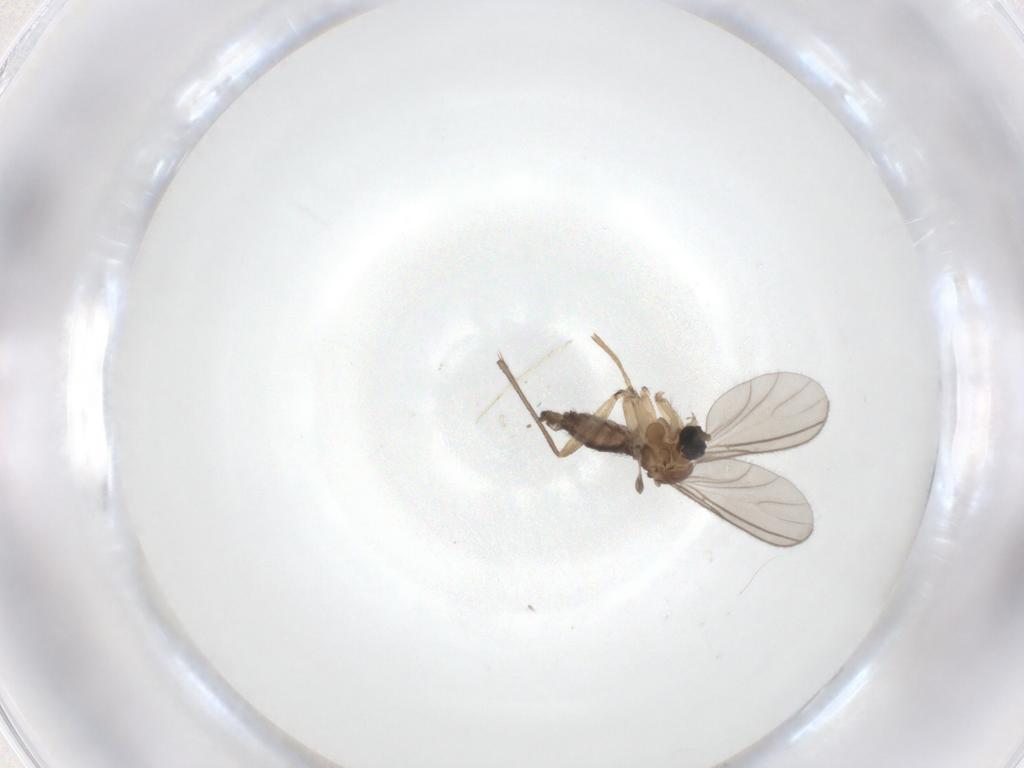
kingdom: Animalia
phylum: Arthropoda
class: Insecta
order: Diptera
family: Sciaridae
